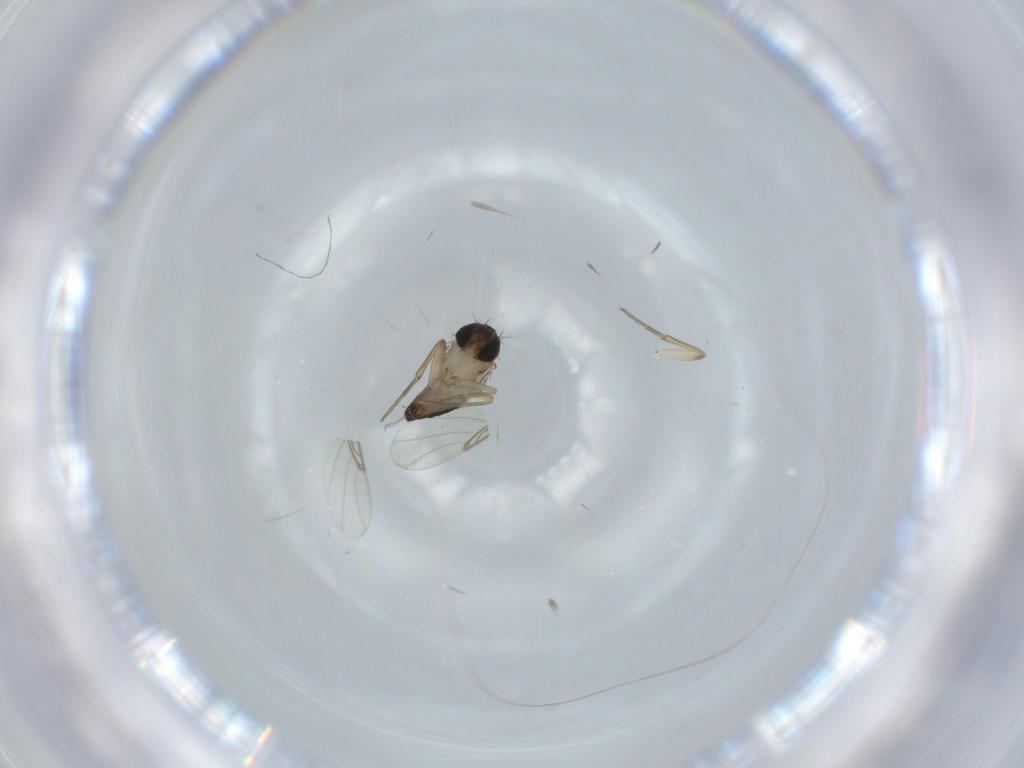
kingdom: Animalia
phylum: Arthropoda
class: Insecta
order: Diptera
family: Phoridae
